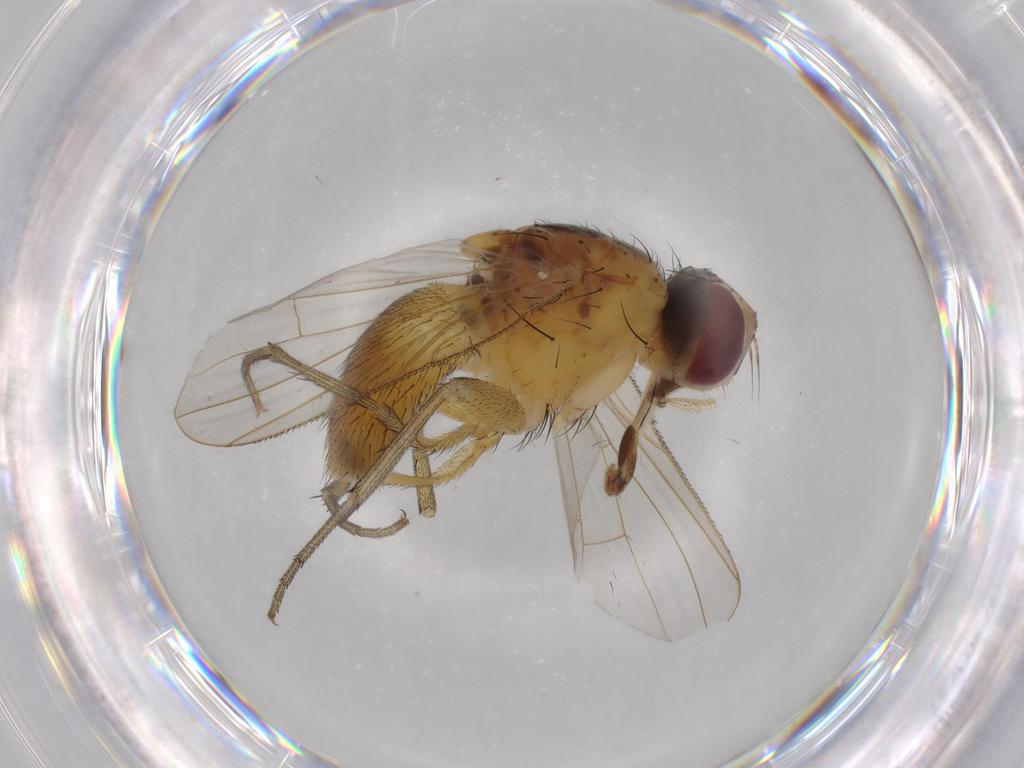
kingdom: Animalia
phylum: Arthropoda
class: Insecta
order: Diptera
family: Muscidae
